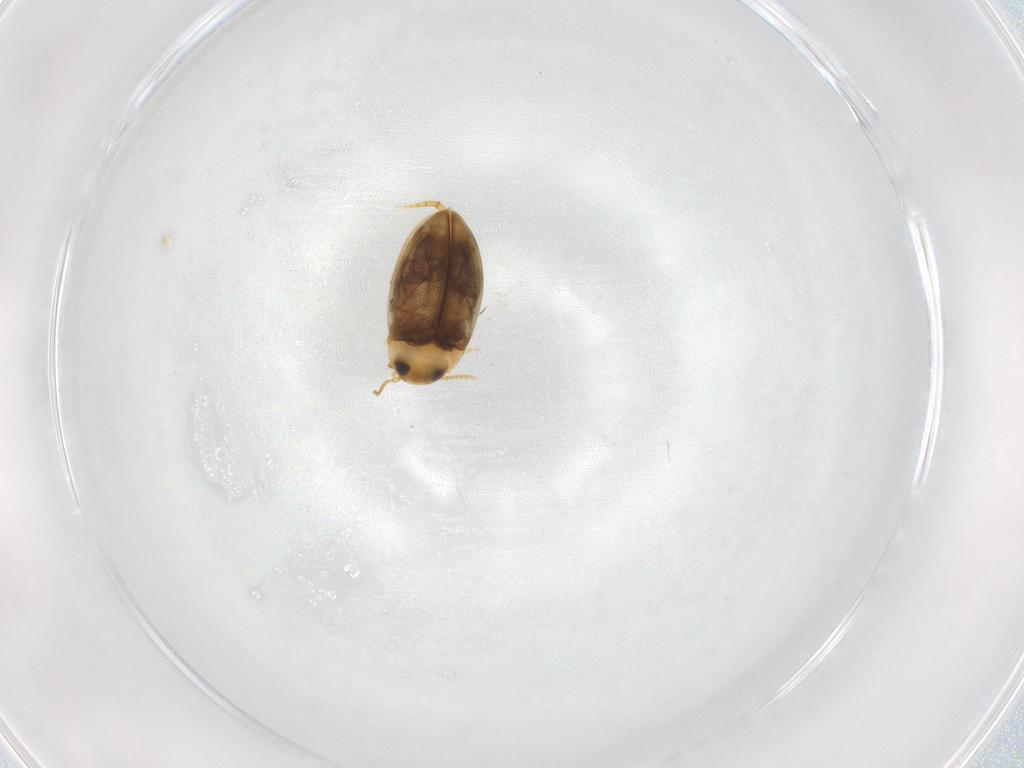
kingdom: Animalia
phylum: Arthropoda
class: Insecta
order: Coleoptera
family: Dytiscidae
